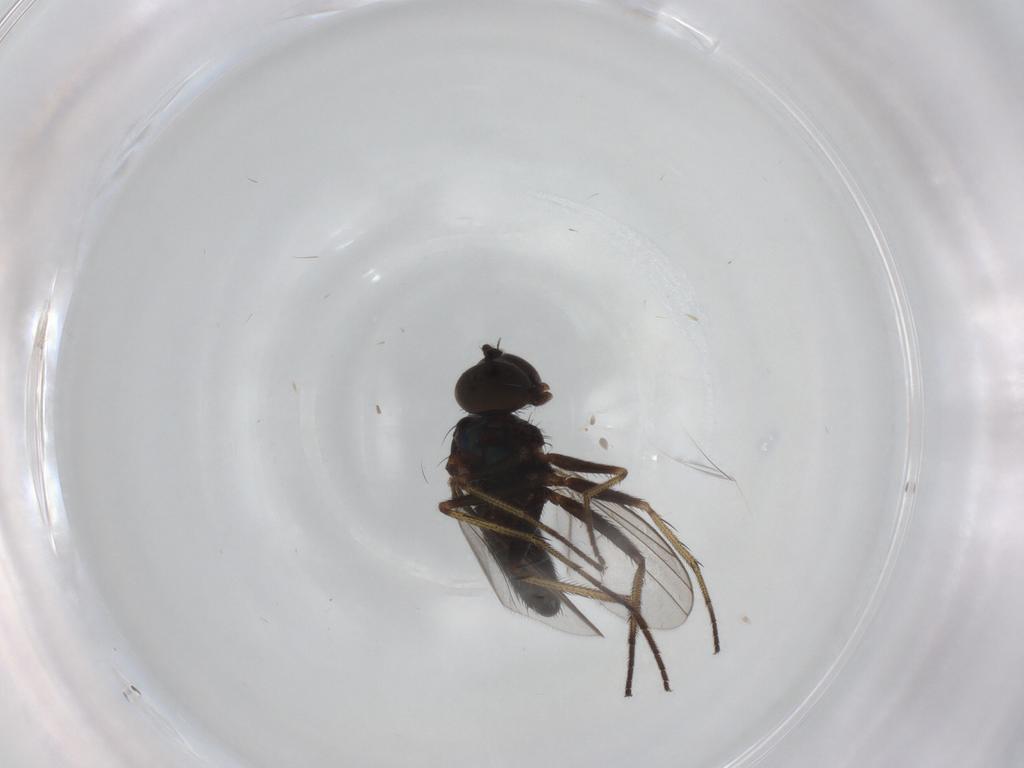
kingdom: Animalia
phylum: Arthropoda
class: Insecta
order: Diptera
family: Dolichopodidae
